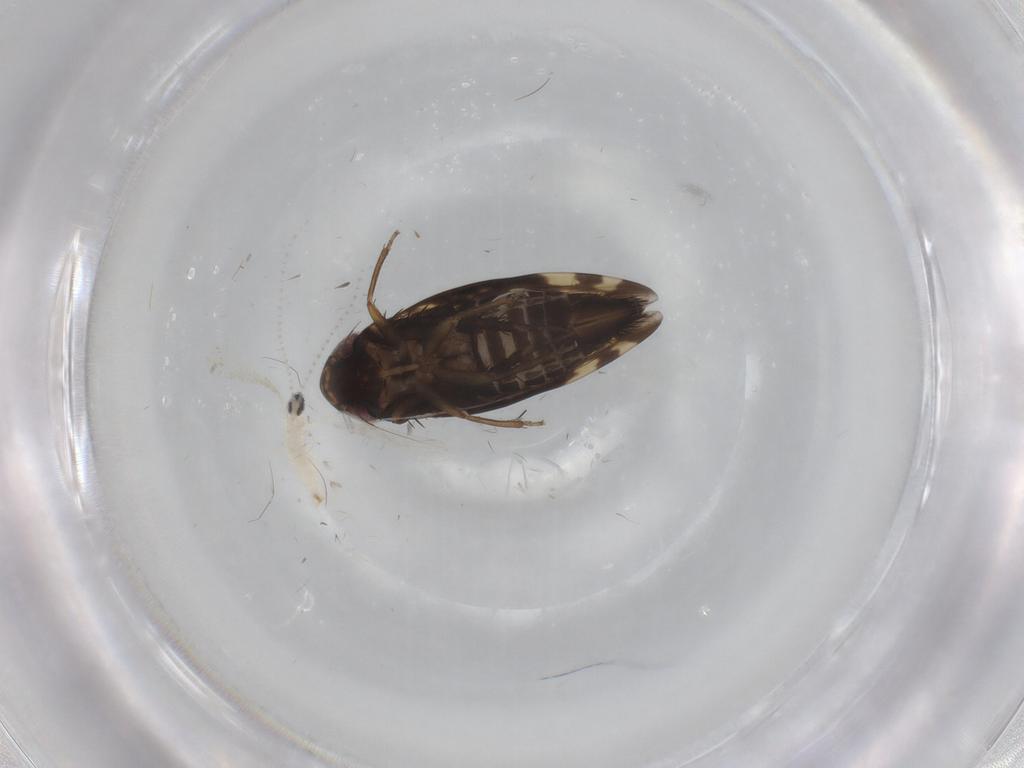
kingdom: Animalia
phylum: Arthropoda
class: Insecta
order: Hemiptera
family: Cicadellidae
